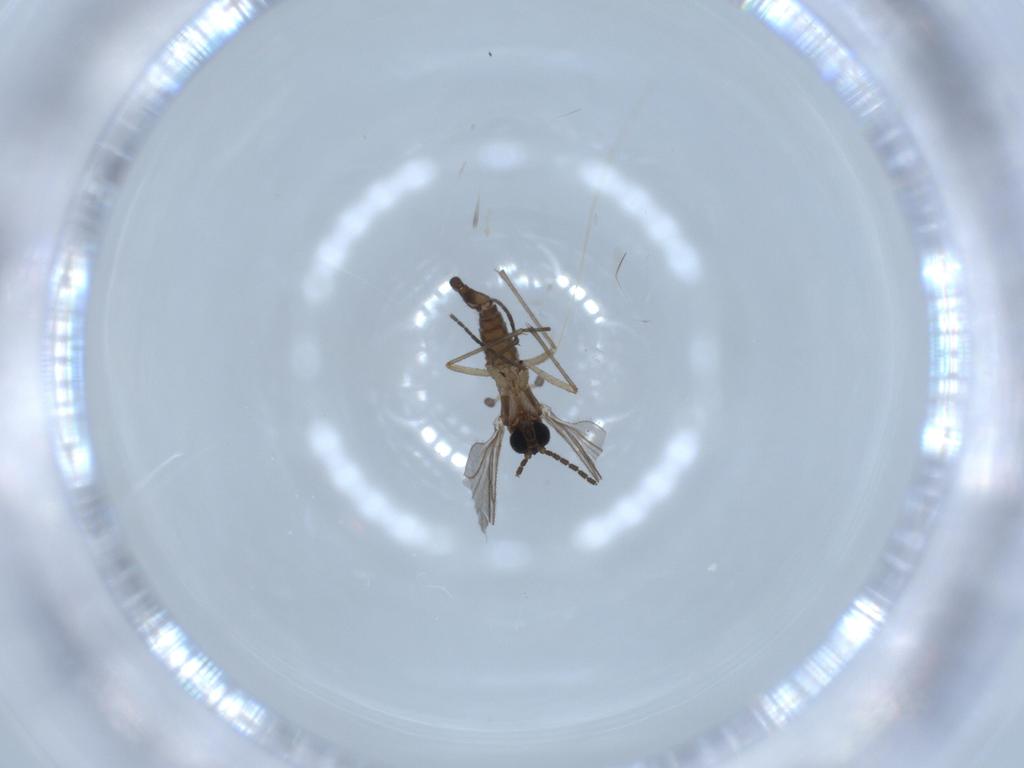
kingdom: Animalia
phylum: Arthropoda
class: Insecta
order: Diptera
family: Sciaridae
